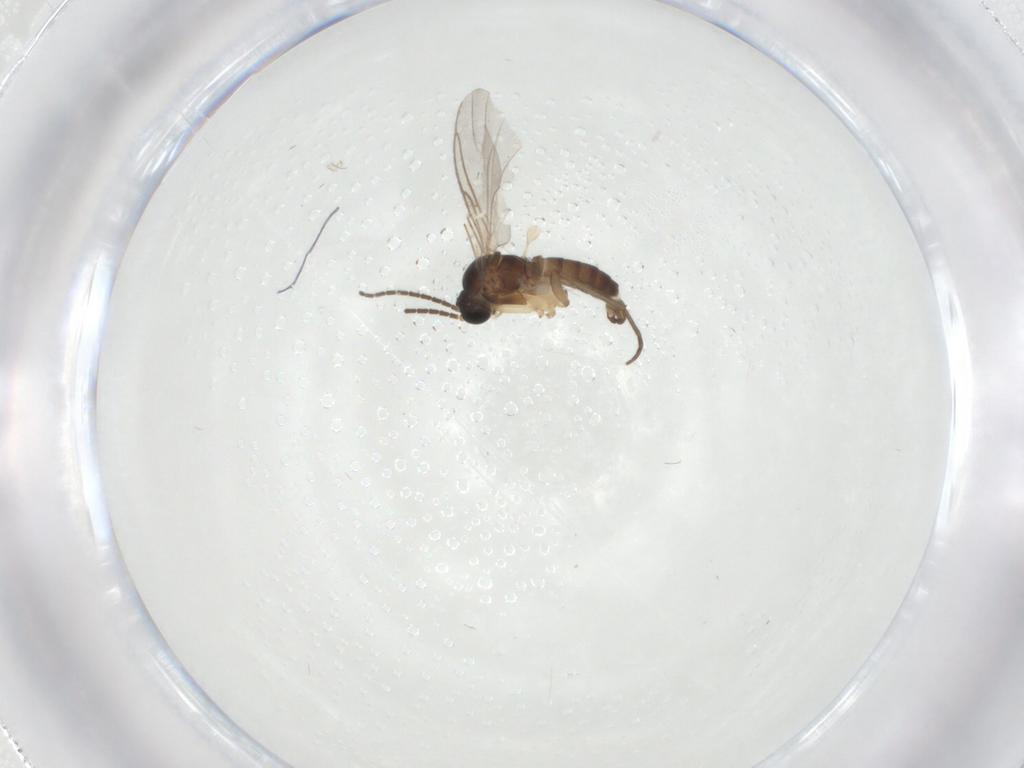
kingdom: Animalia
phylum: Arthropoda
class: Insecta
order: Diptera
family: Sciaridae
